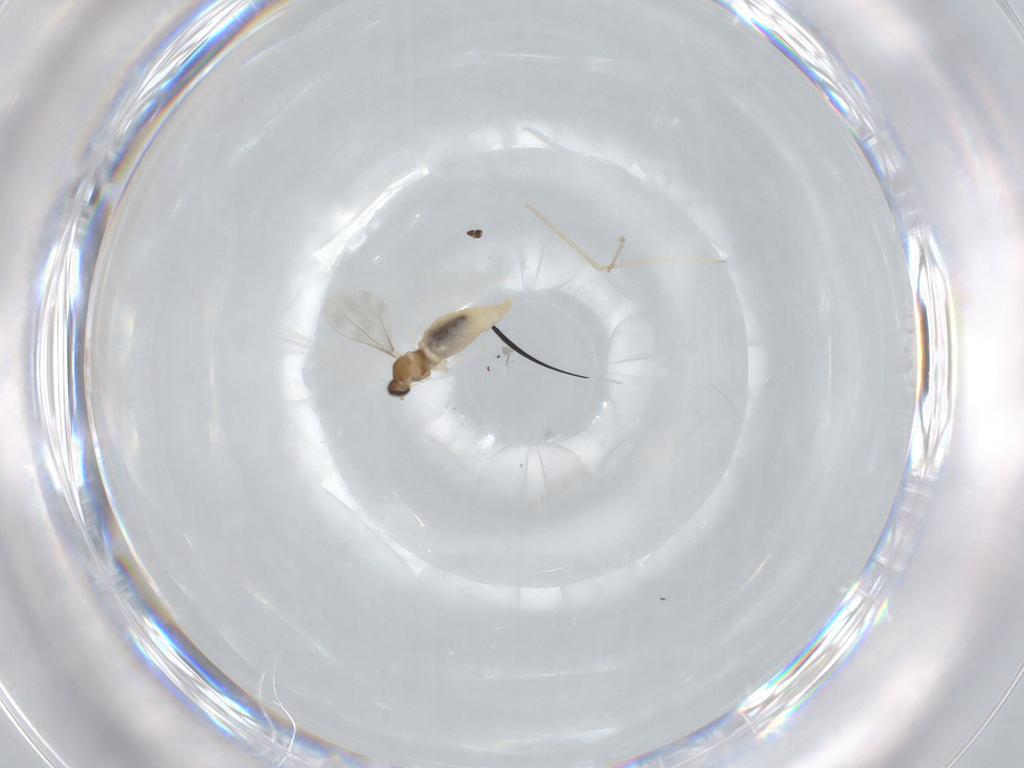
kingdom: Animalia
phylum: Arthropoda
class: Insecta
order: Diptera
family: Cecidomyiidae
